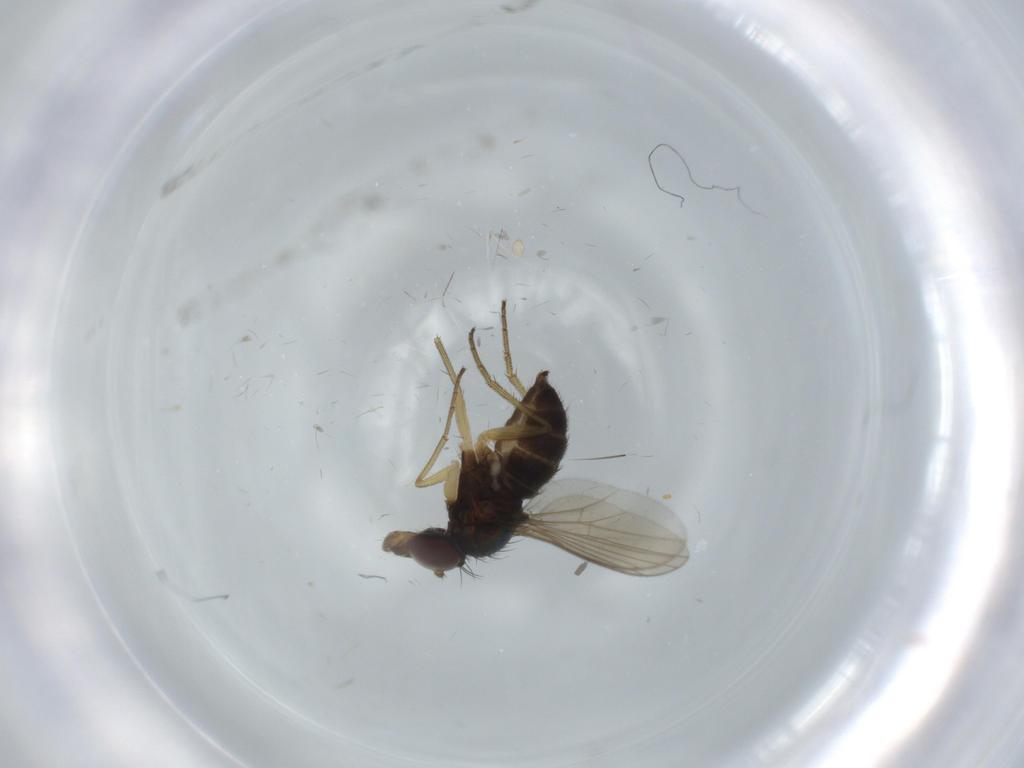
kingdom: Animalia
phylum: Arthropoda
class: Insecta
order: Diptera
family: Dolichopodidae
